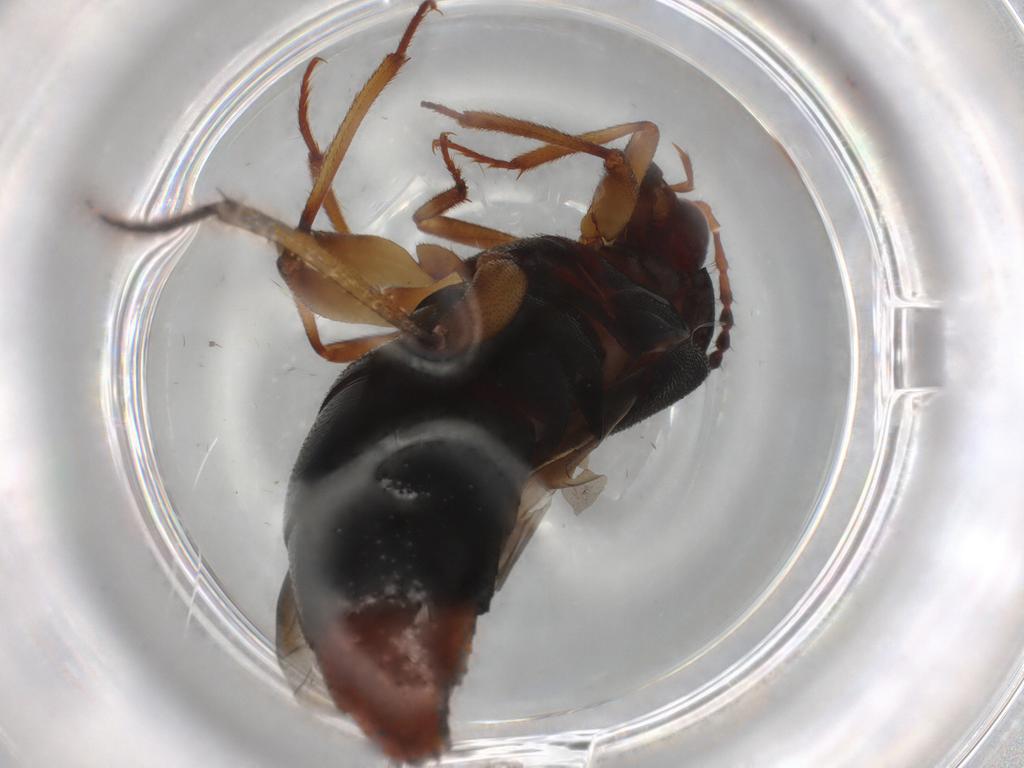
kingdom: Animalia
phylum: Arthropoda
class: Insecta
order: Coleoptera
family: Staphylinidae
